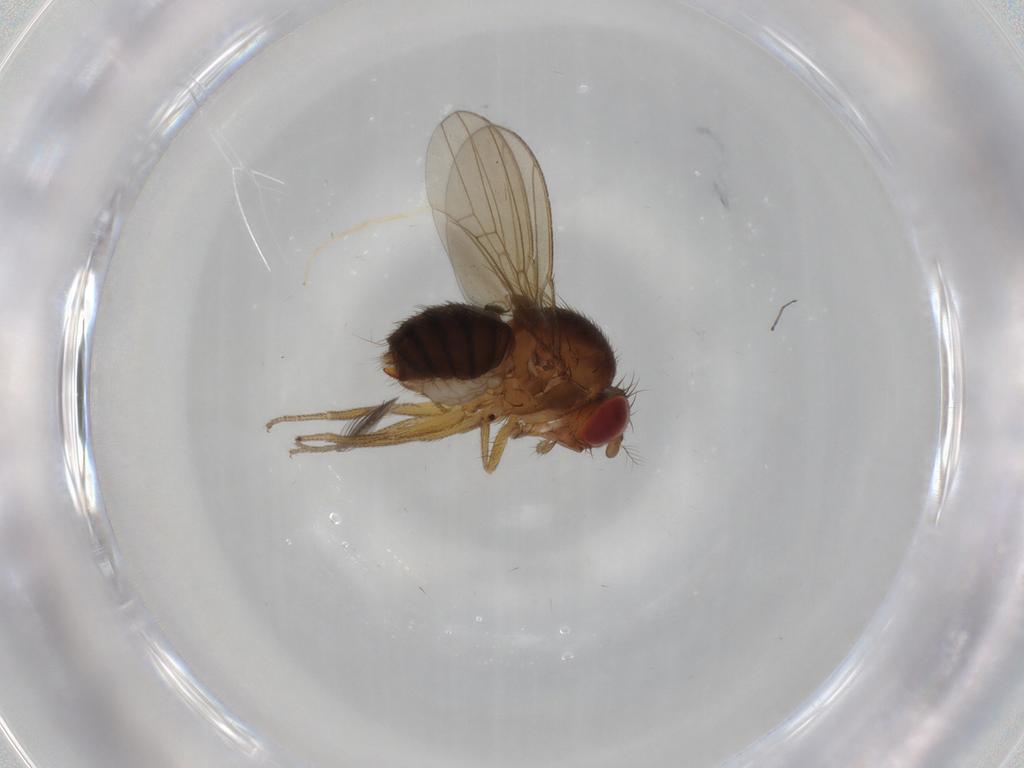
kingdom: Animalia
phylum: Arthropoda
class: Insecta
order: Diptera
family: Drosophilidae
